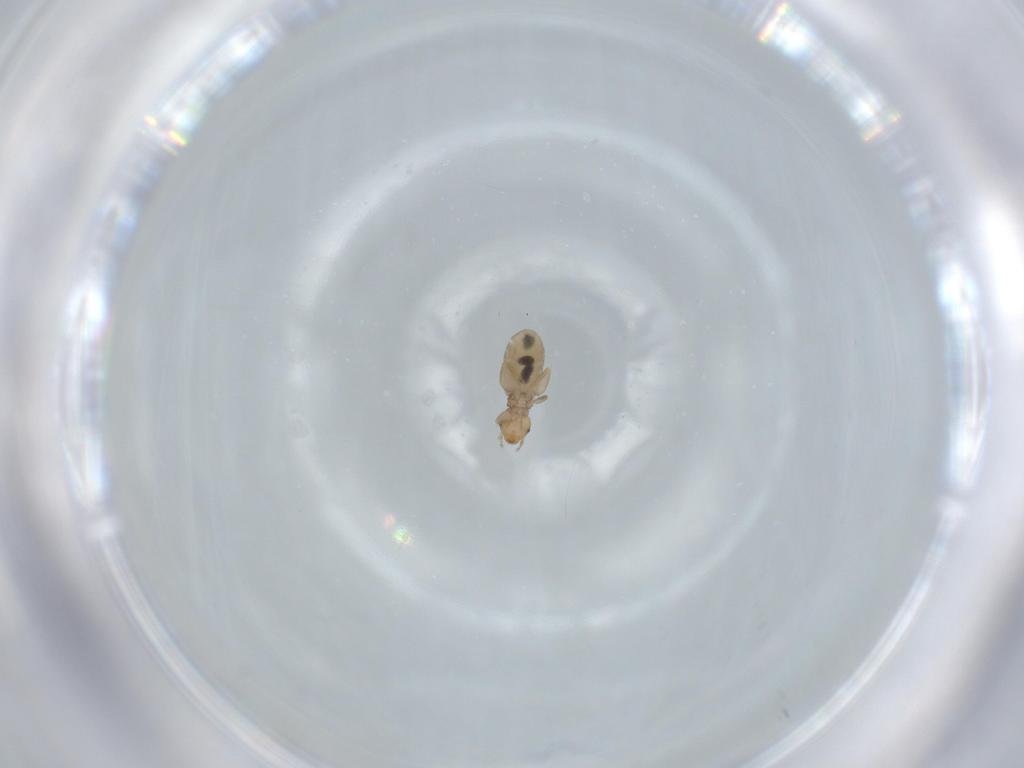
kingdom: Animalia
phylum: Arthropoda
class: Insecta
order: Psocodea
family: Liposcelididae
